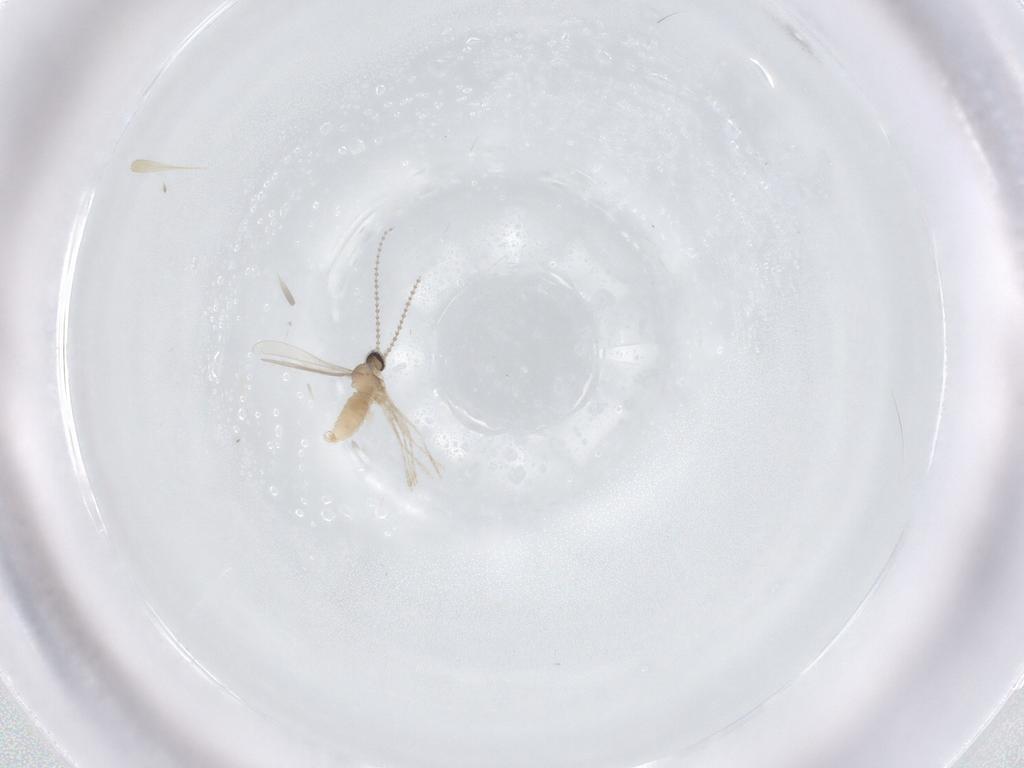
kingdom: Animalia
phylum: Arthropoda
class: Insecta
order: Diptera
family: Cecidomyiidae
